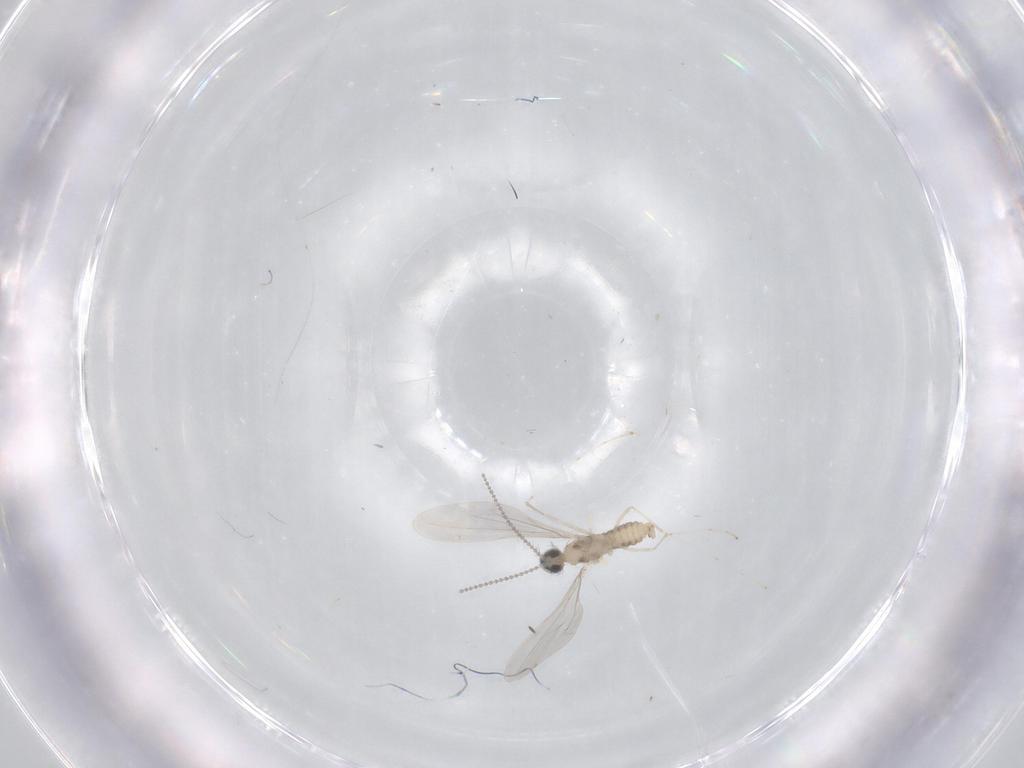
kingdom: Animalia
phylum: Arthropoda
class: Insecta
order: Diptera
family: Cecidomyiidae
